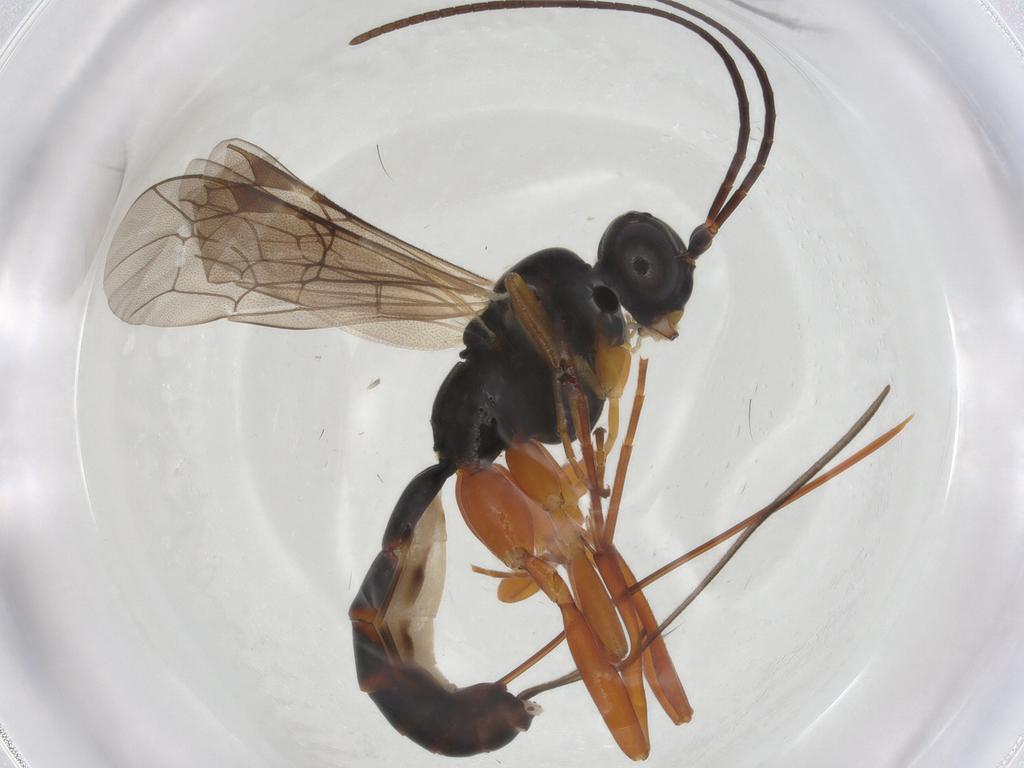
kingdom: Animalia
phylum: Arthropoda
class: Insecta
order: Hymenoptera
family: Ichneumonidae
